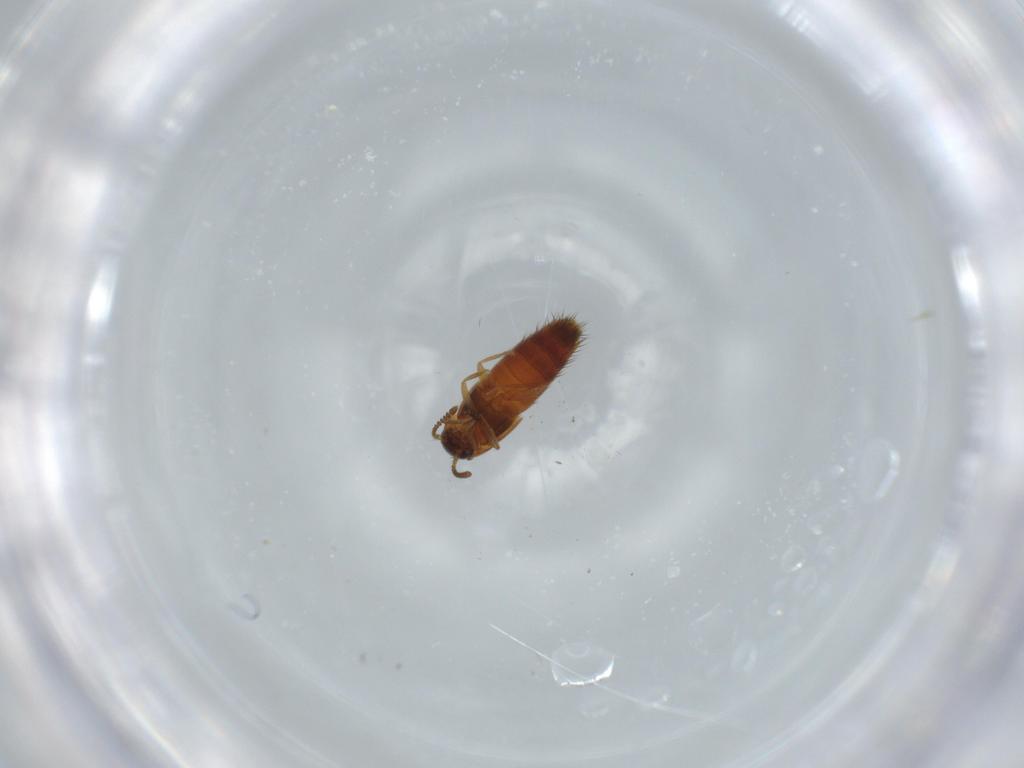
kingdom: Animalia
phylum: Arthropoda
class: Insecta
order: Coleoptera
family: Staphylinidae
